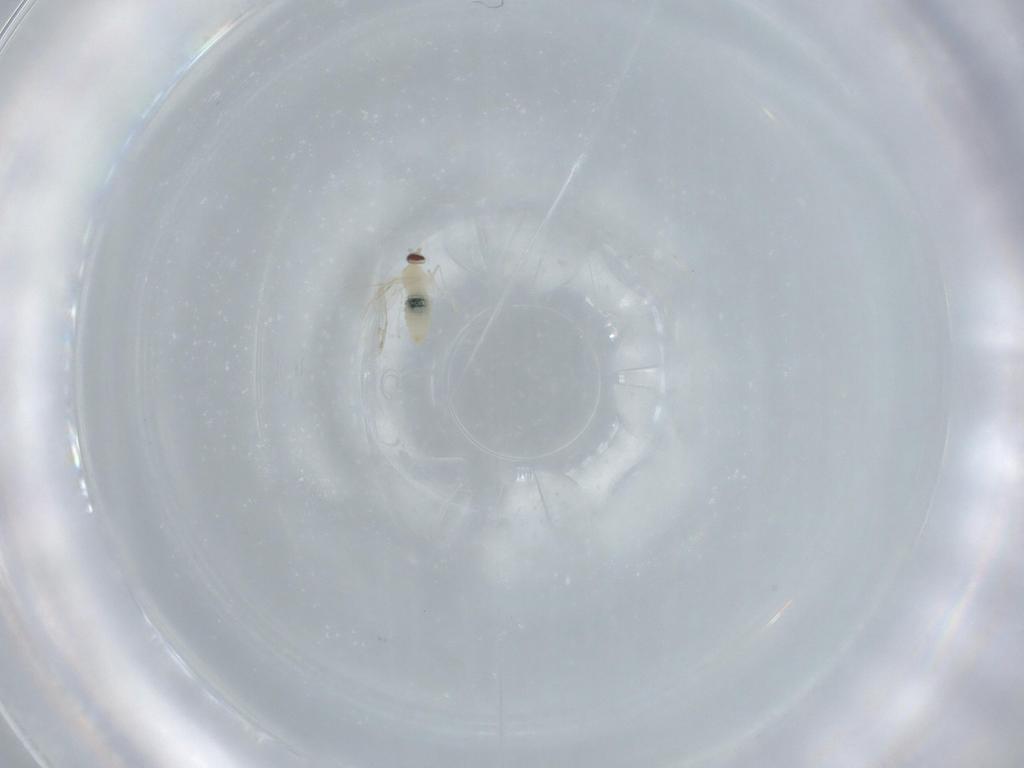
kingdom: Animalia
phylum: Arthropoda
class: Insecta
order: Diptera
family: Cecidomyiidae
